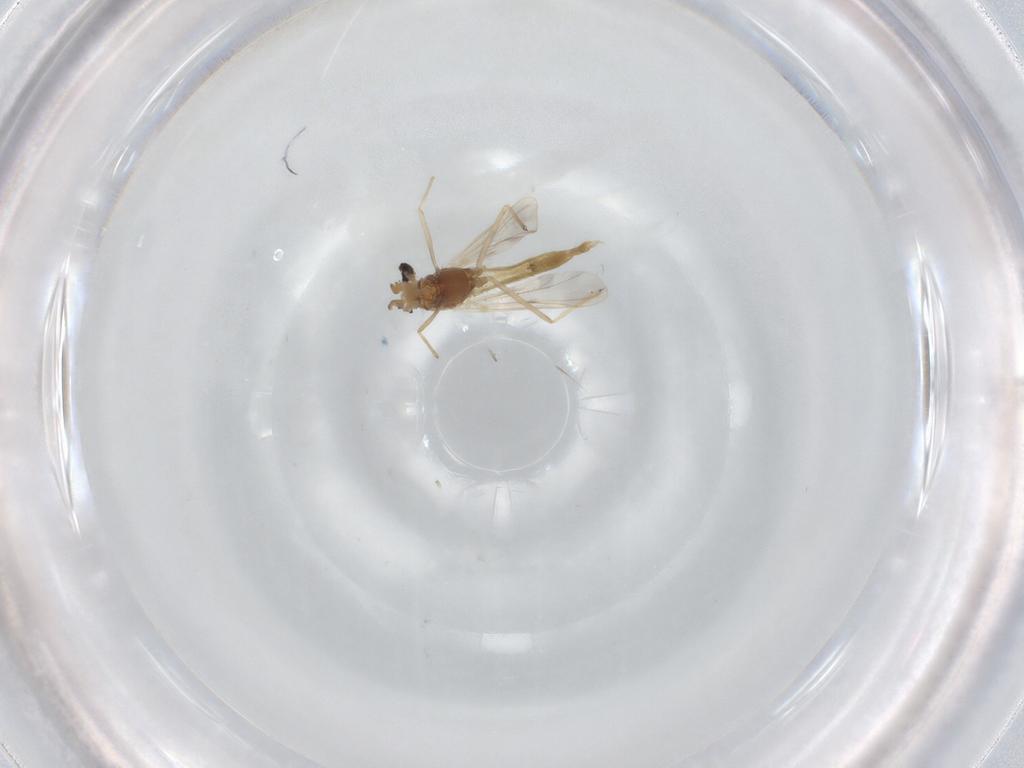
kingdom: Animalia
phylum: Arthropoda
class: Insecta
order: Diptera
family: Chironomidae
